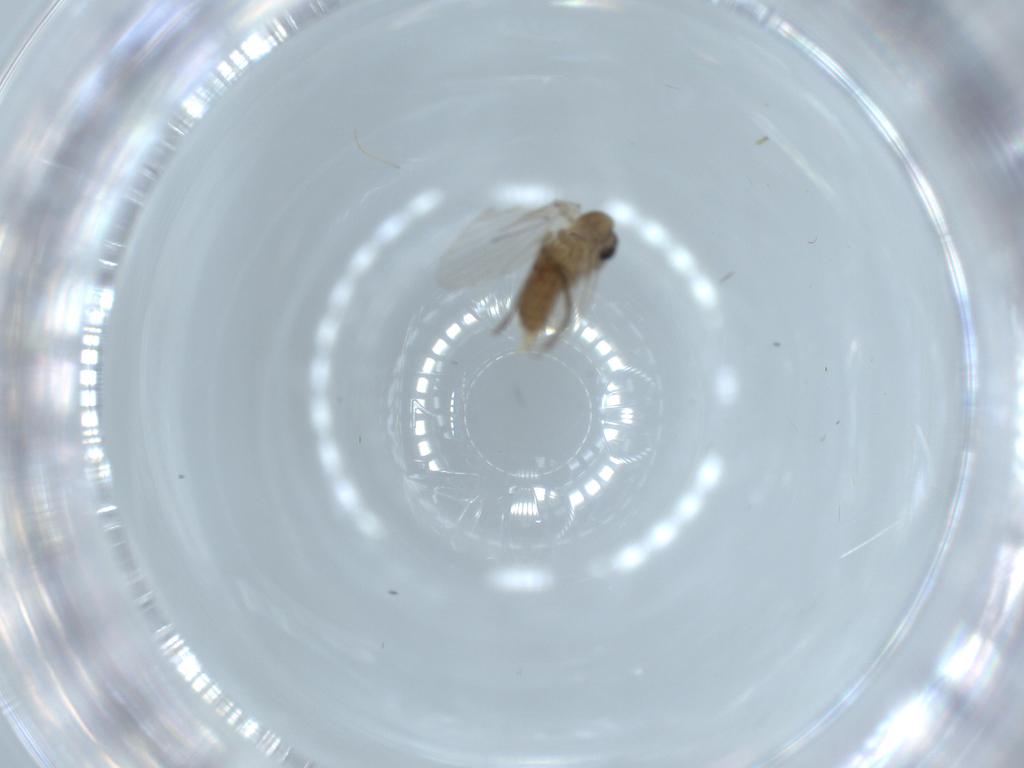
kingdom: Animalia
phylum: Arthropoda
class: Insecta
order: Diptera
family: Psychodidae
